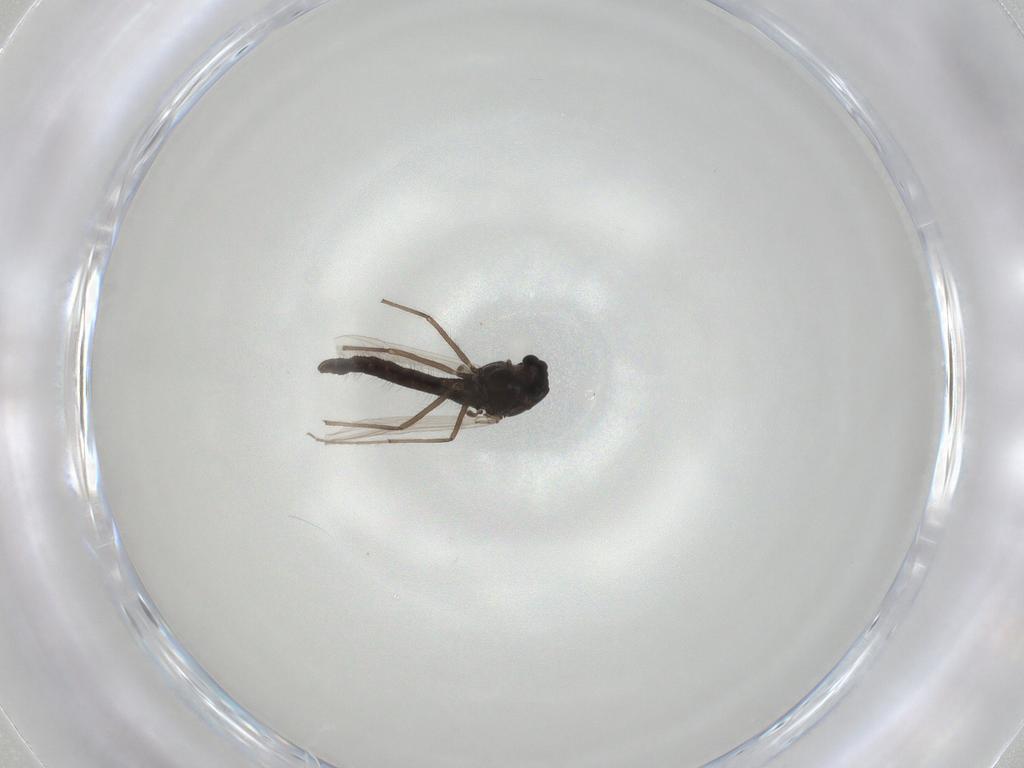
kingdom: Animalia
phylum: Arthropoda
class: Insecta
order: Diptera
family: Chironomidae
